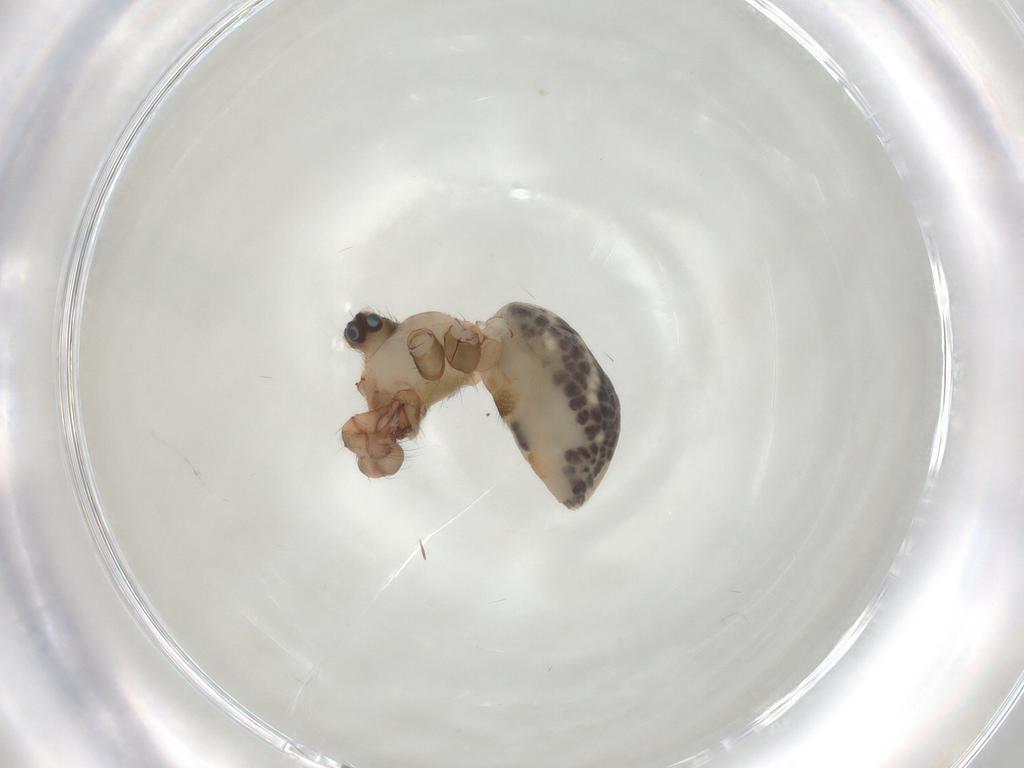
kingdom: Animalia
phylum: Arthropoda
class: Arachnida
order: Araneae
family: Pholcidae
